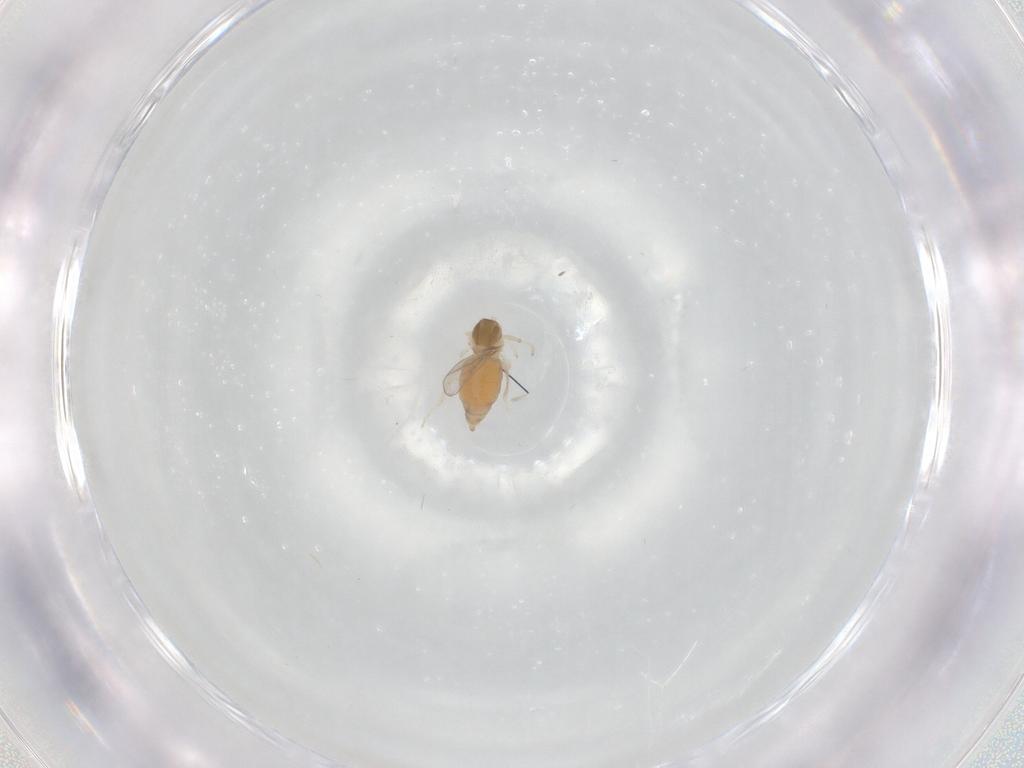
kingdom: Animalia
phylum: Arthropoda
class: Insecta
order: Diptera
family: Cecidomyiidae
